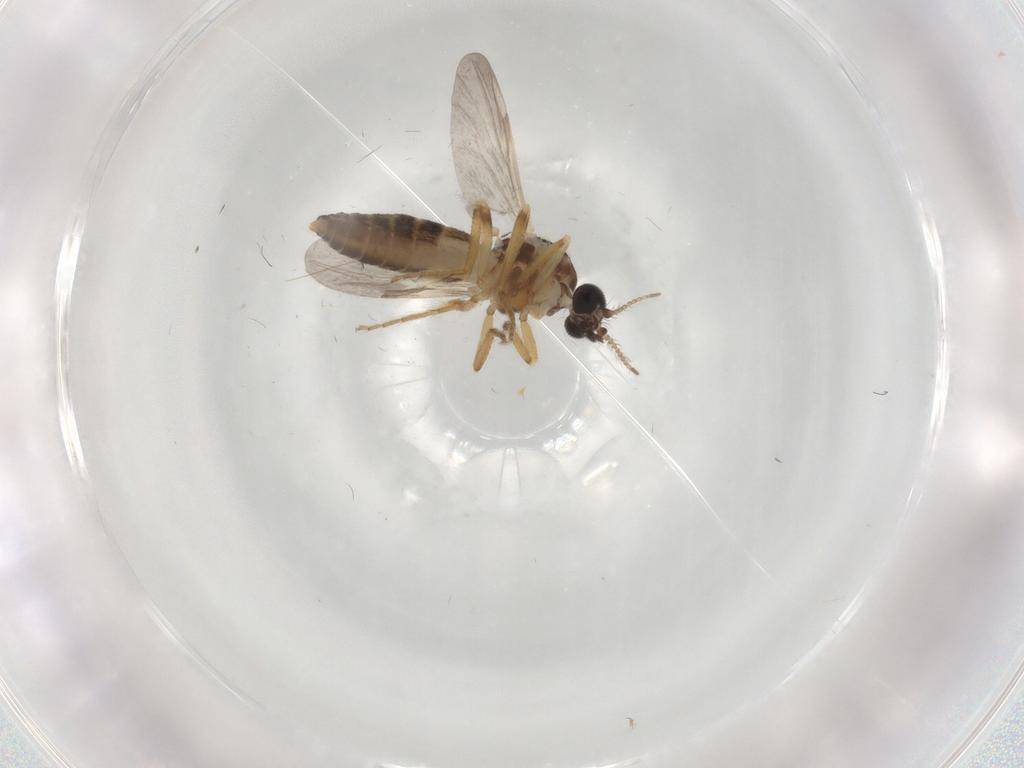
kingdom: Animalia
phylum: Arthropoda
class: Insecta
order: Diptera
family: Ceratopogonidae
